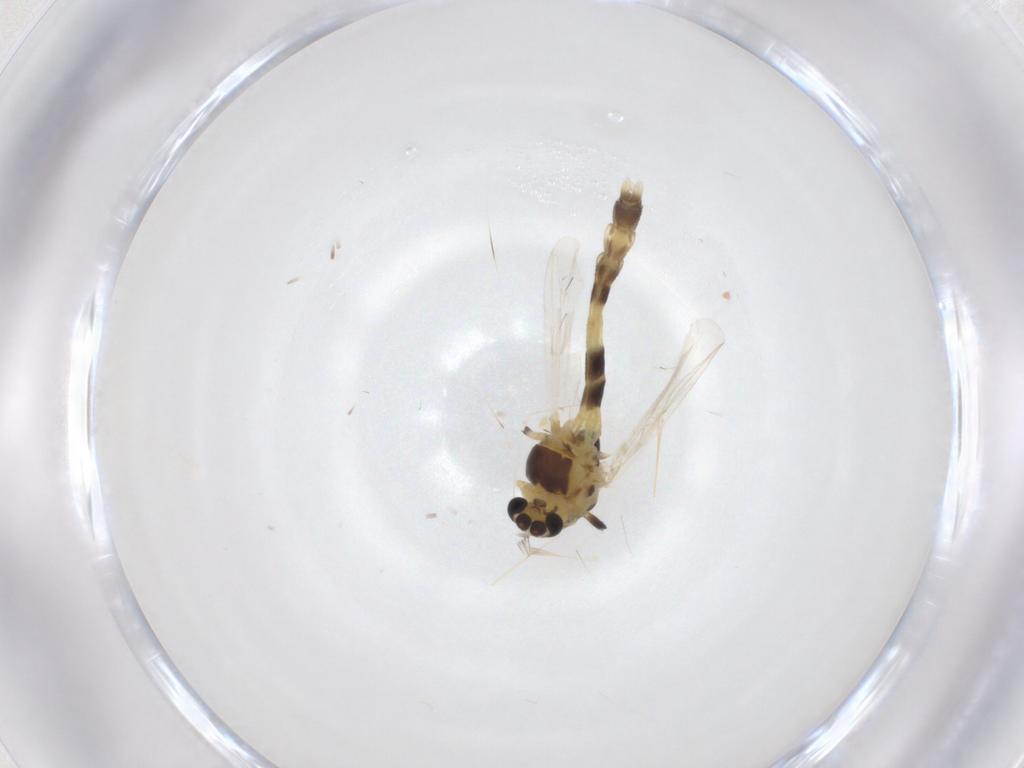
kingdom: Animalia
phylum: Arthropoda
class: Insecta
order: Diptera
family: Chironomidae
